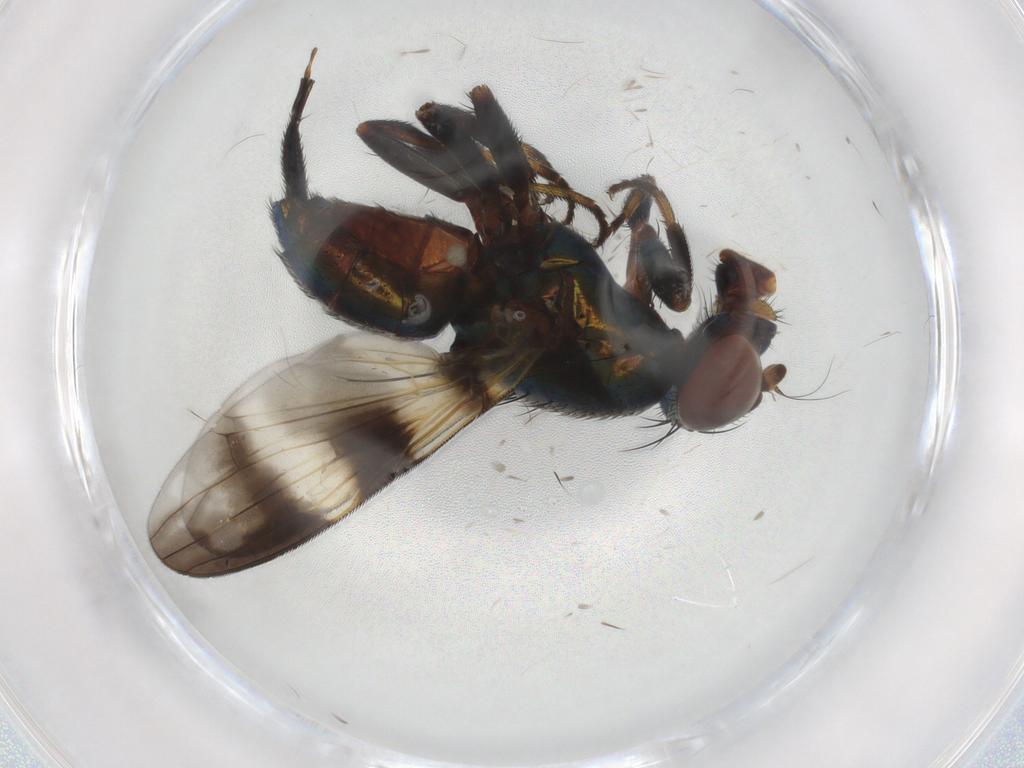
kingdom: Animalia
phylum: Arthropoda
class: Insecta
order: Diptera
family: Ulidiidae
